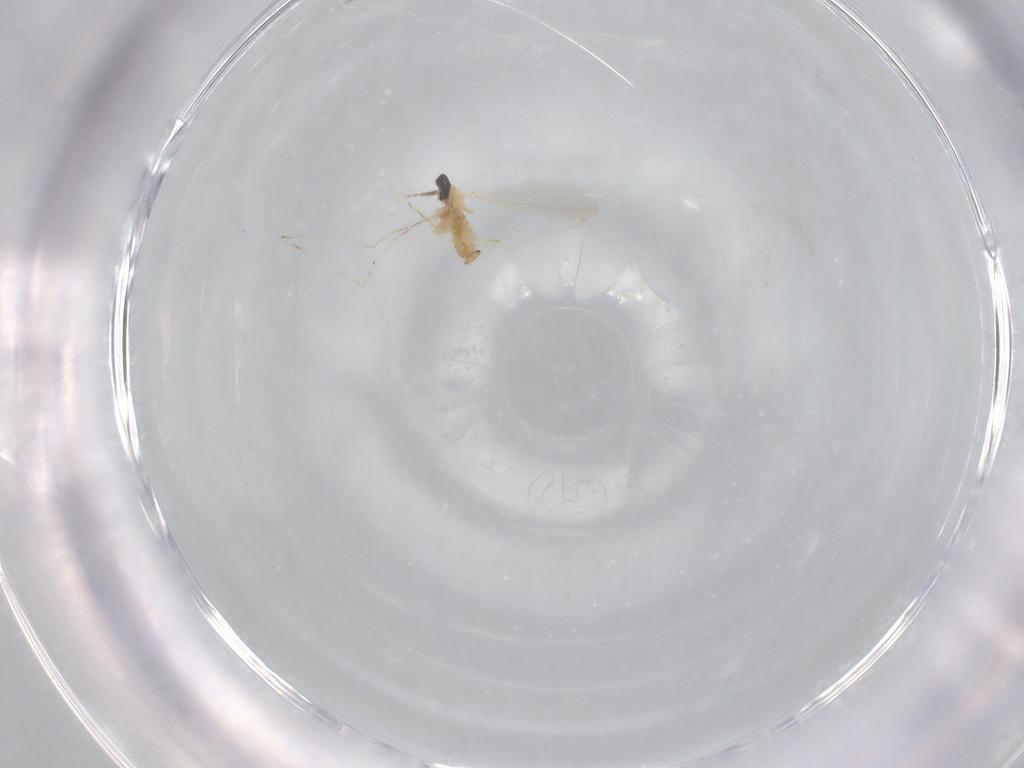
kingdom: Animalia
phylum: Arthropoda
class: Insecta
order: Diptera
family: Cecidomyiidae
